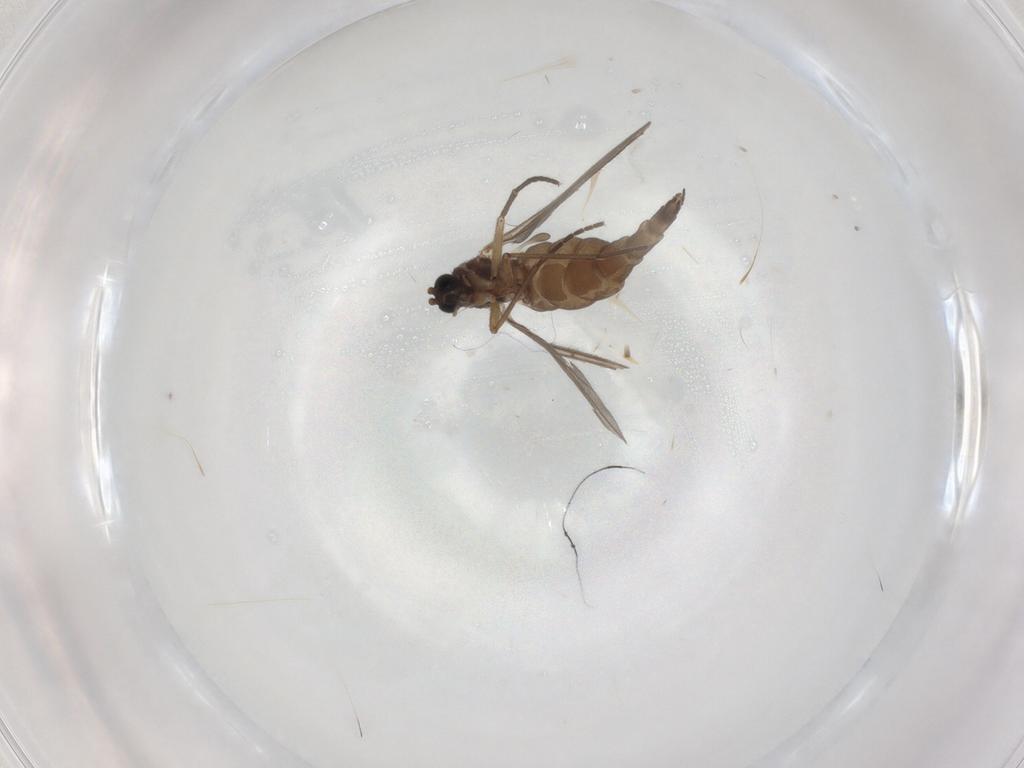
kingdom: Animalia
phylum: Arthropoda
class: Insecta
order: Diptera
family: Sciaridae
